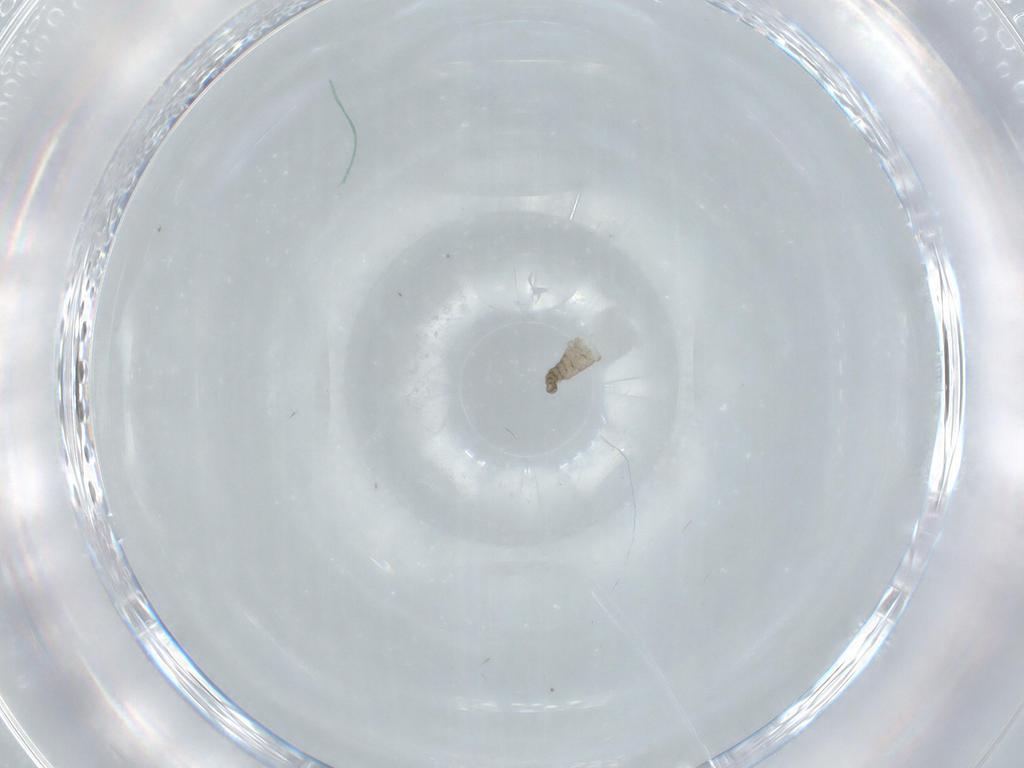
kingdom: Animalia
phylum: Arthropoda
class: Insecta
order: Diptera
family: Cecidomyiidae
